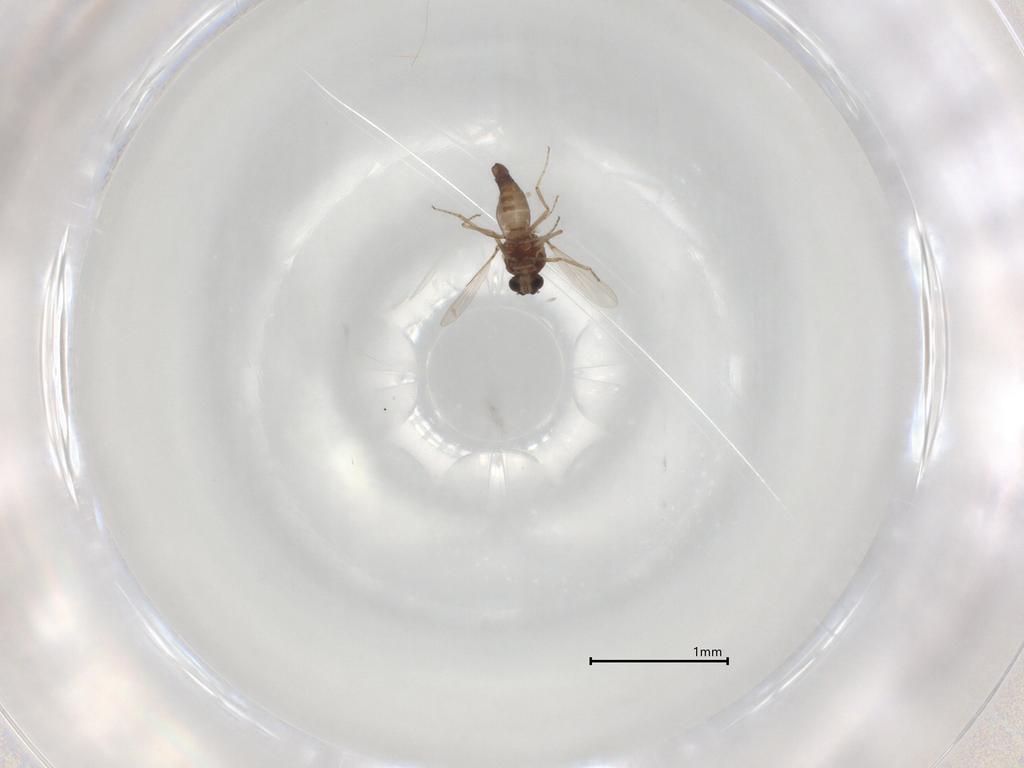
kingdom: Animalia
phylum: Arthropoda
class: Insecta
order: Diptera
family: Ceratopogonidae
